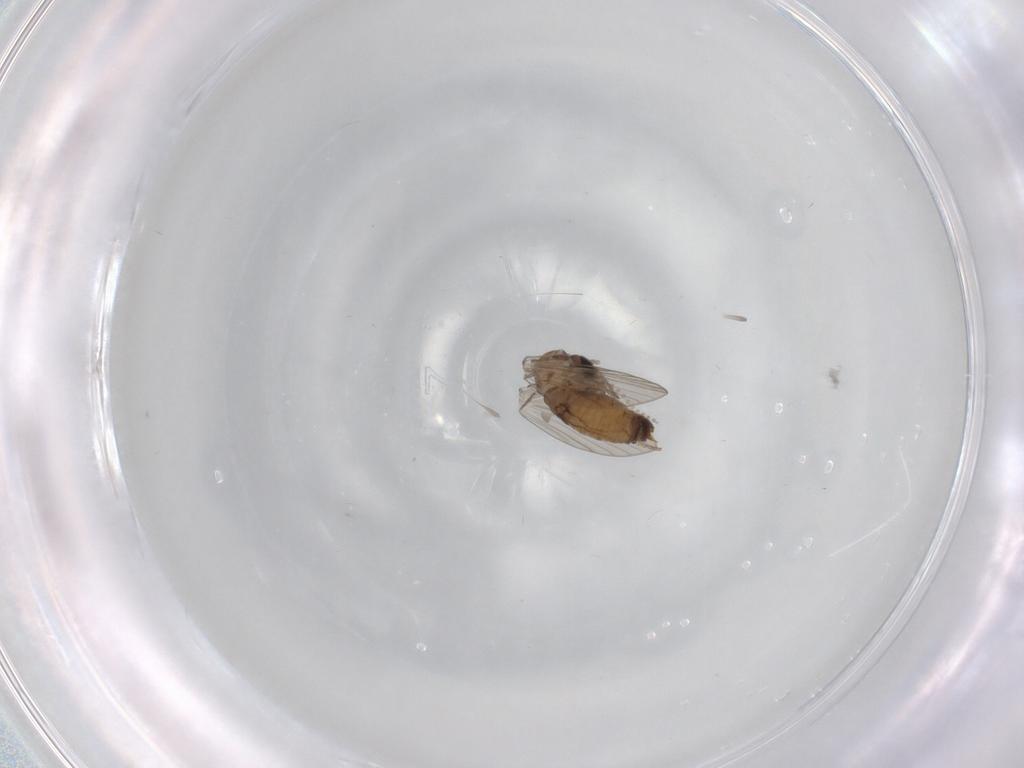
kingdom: Animalia
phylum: Arthropoda
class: Insecta
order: Diptera
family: Psychodidae
